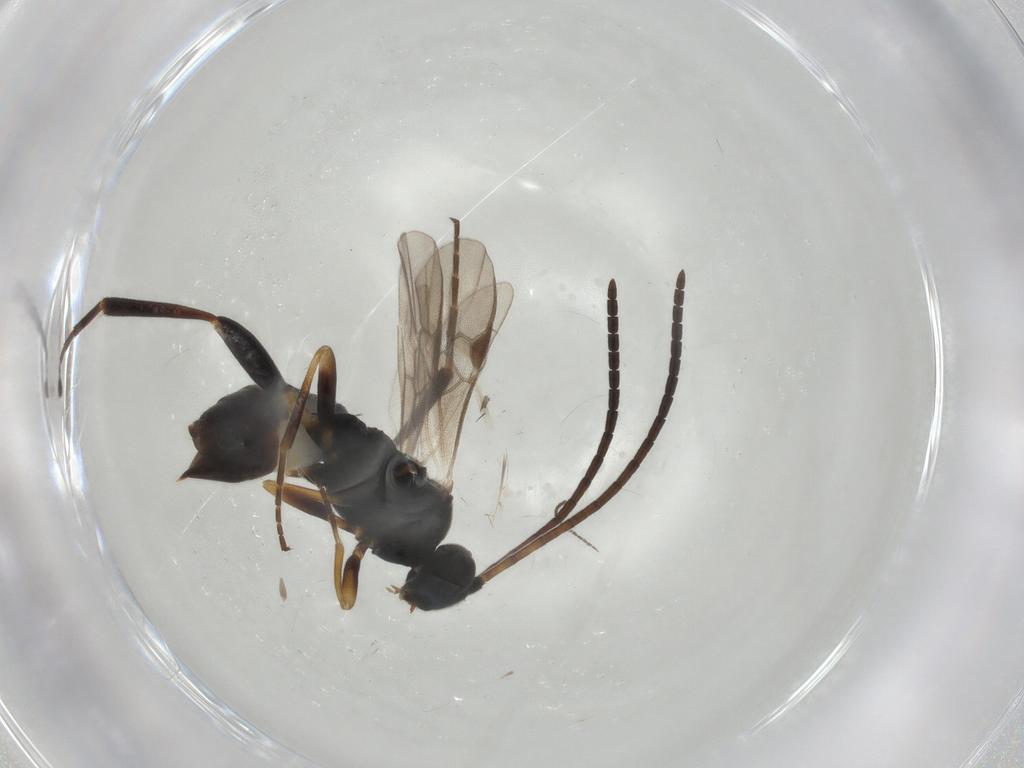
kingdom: Animalia
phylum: Arthropoda
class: Insecta
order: Hymenoptera
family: Braconidae
